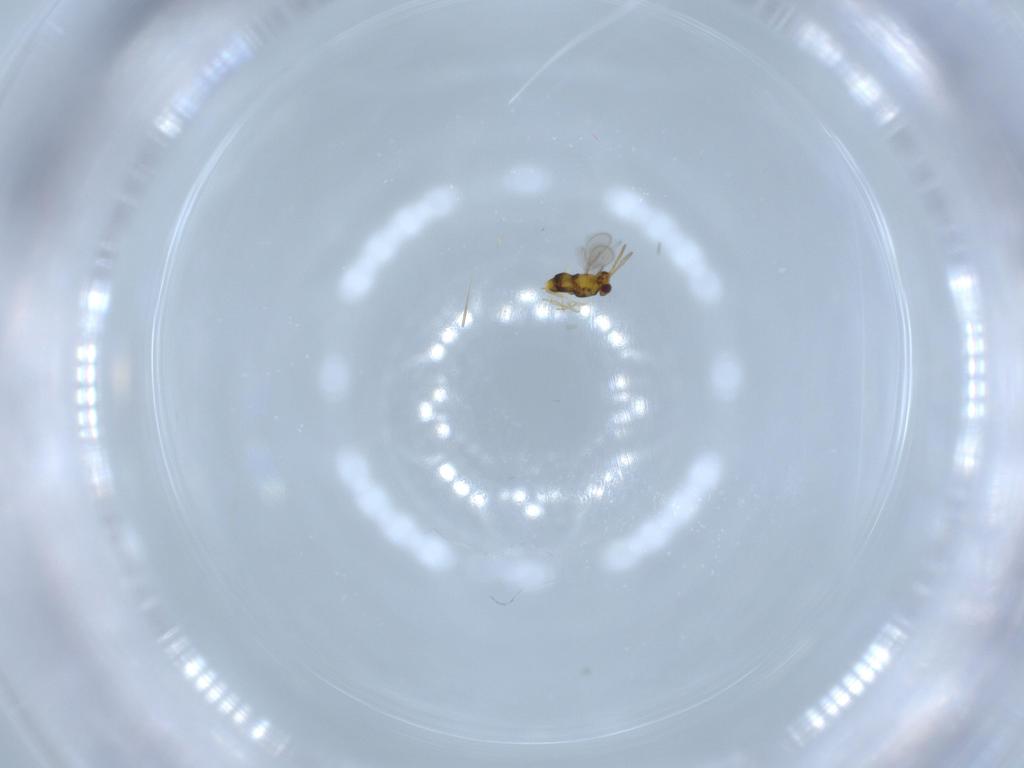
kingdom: Animalia
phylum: Arthropoda
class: Insecta
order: Hymenoptera
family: Aphelinidae
